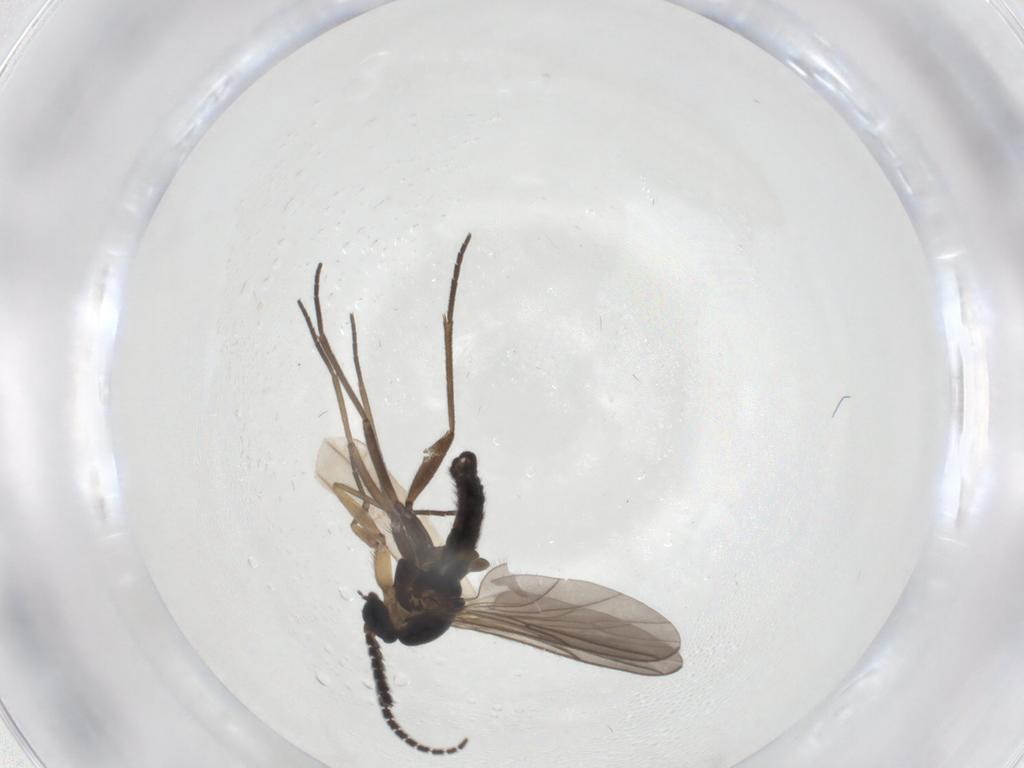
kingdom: Animalia
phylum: Arthropoda
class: Insecta
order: Diptera
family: Sciaridae
